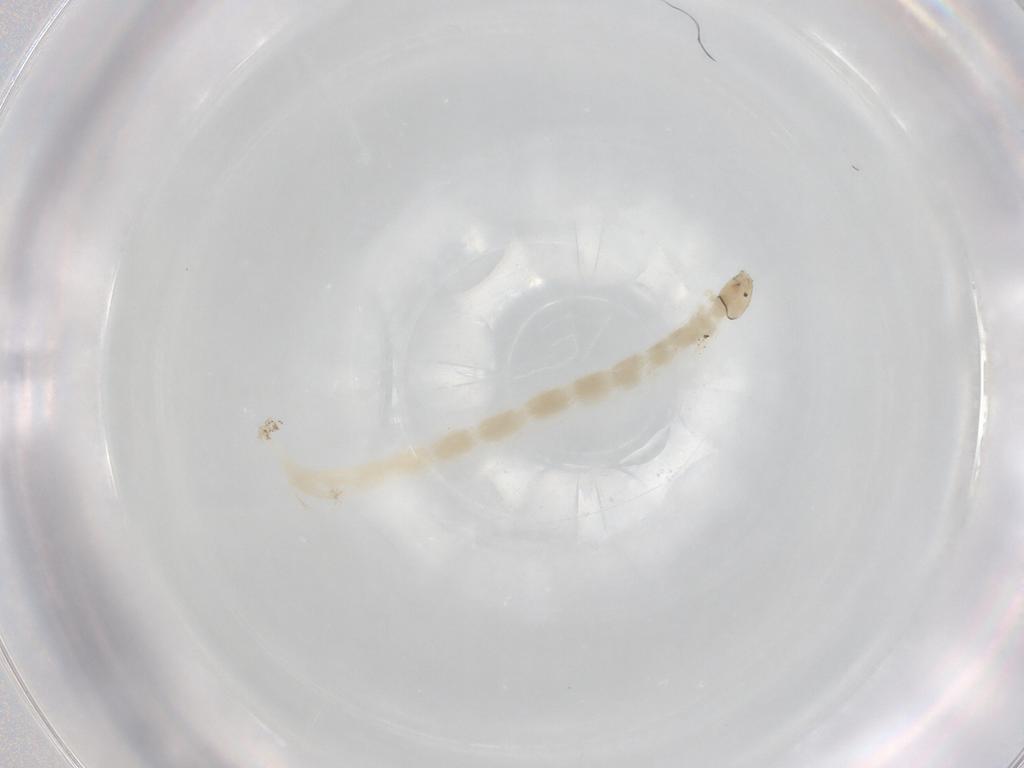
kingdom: Animalia
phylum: Arthropoda
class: Insecta
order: Diptera
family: Chironomidae
